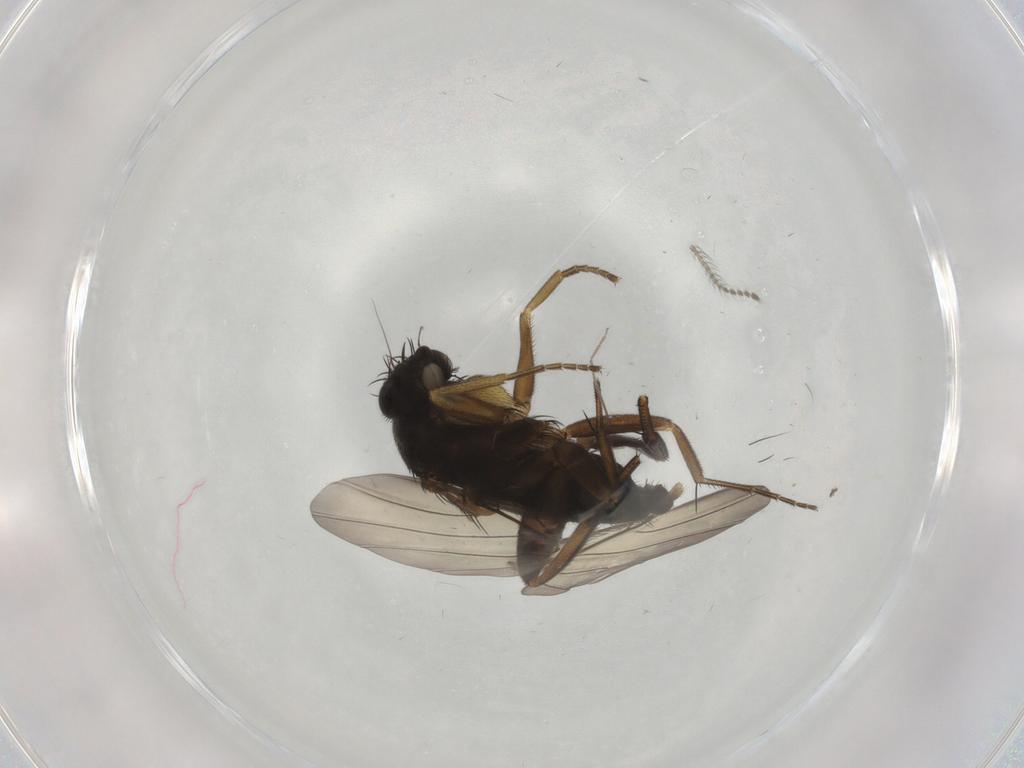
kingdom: Animalia
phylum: Arthropoda
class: Insecta
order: Diptera
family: Phoridae
